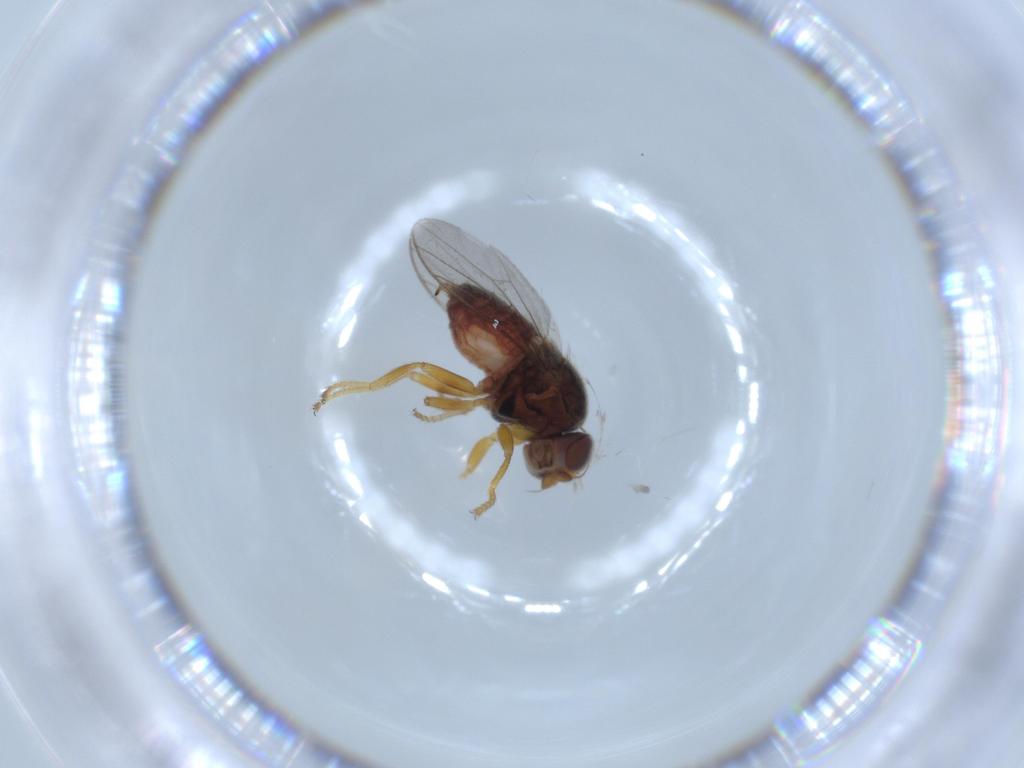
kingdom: Animalia
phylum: Arthropoda
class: Insecta
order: Diptera
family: Chloropidae
